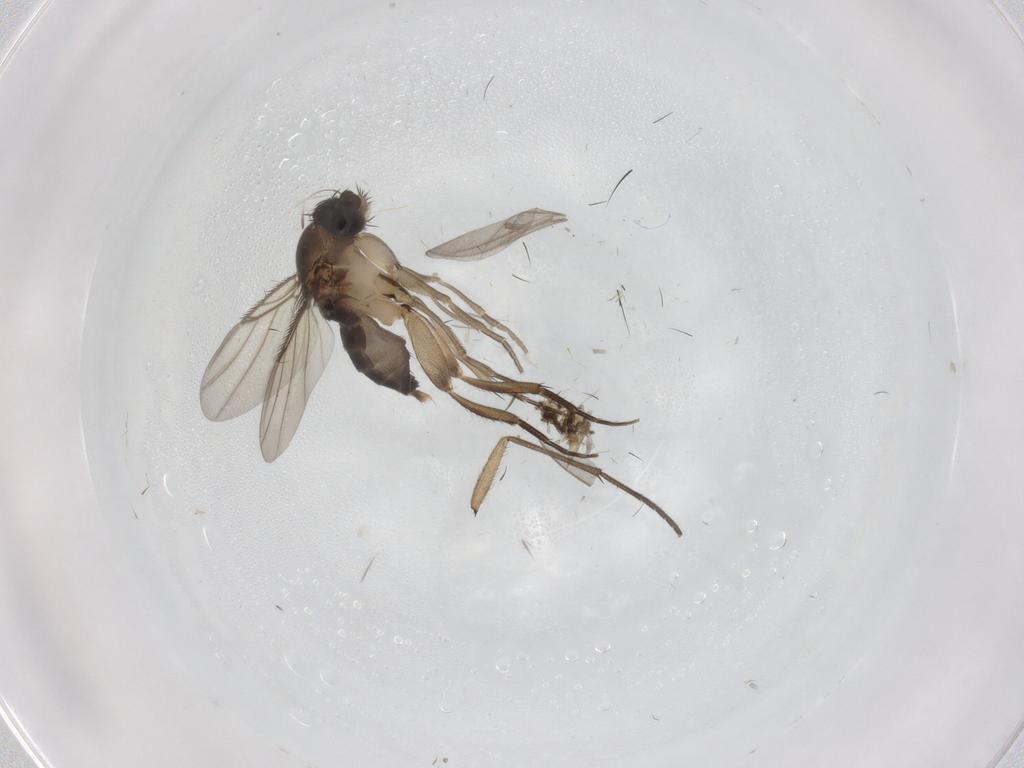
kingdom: Animalia
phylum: Arthropoda
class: Insecta
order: Diptera
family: Phoridae
